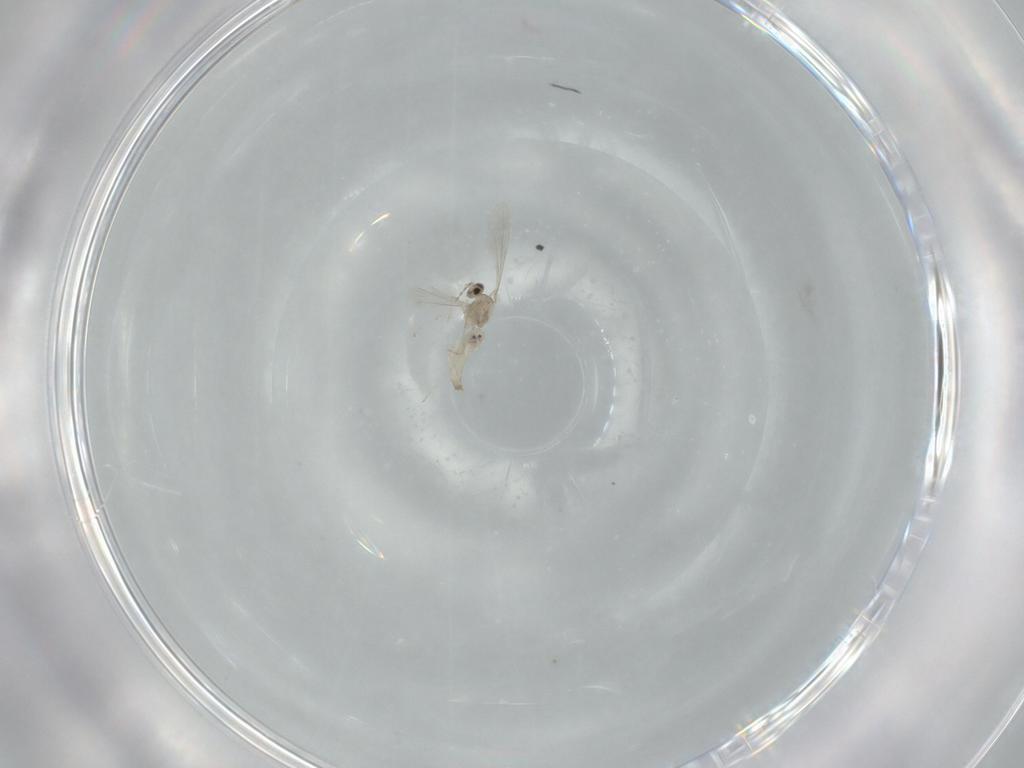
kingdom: Animalia
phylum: Arthropoda
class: Insecta
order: Diptera
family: Cecidomyiidae
